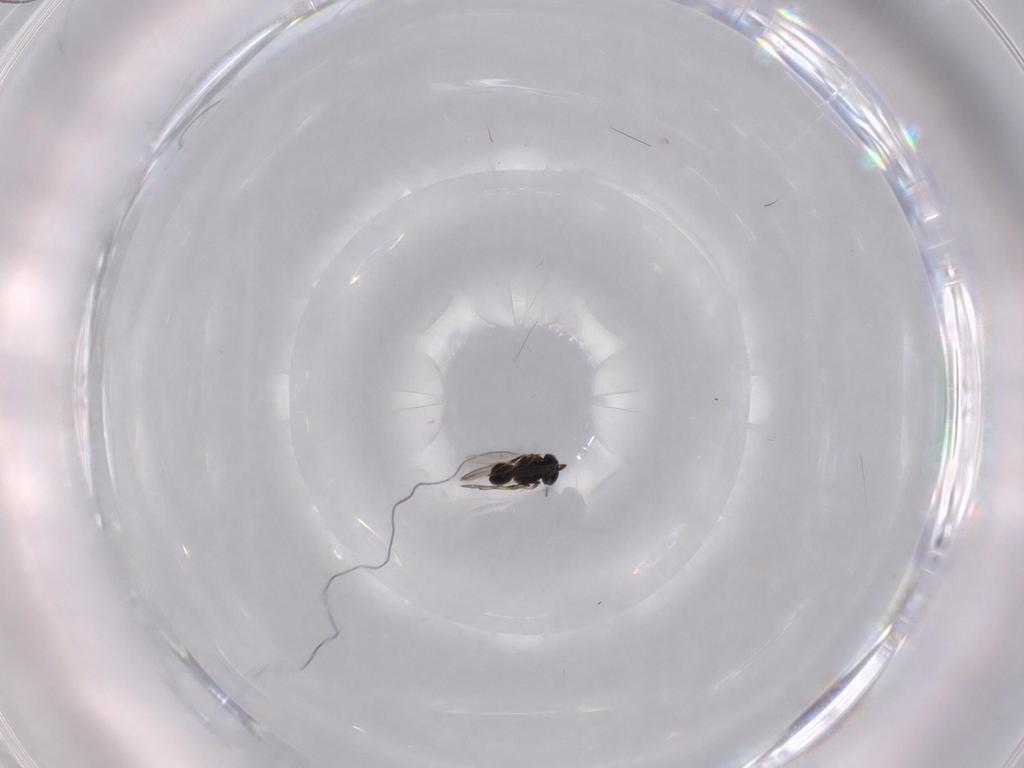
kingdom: Animalia
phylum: Arthropoda
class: Insecta
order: Hymenoptera
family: Scelionidae
